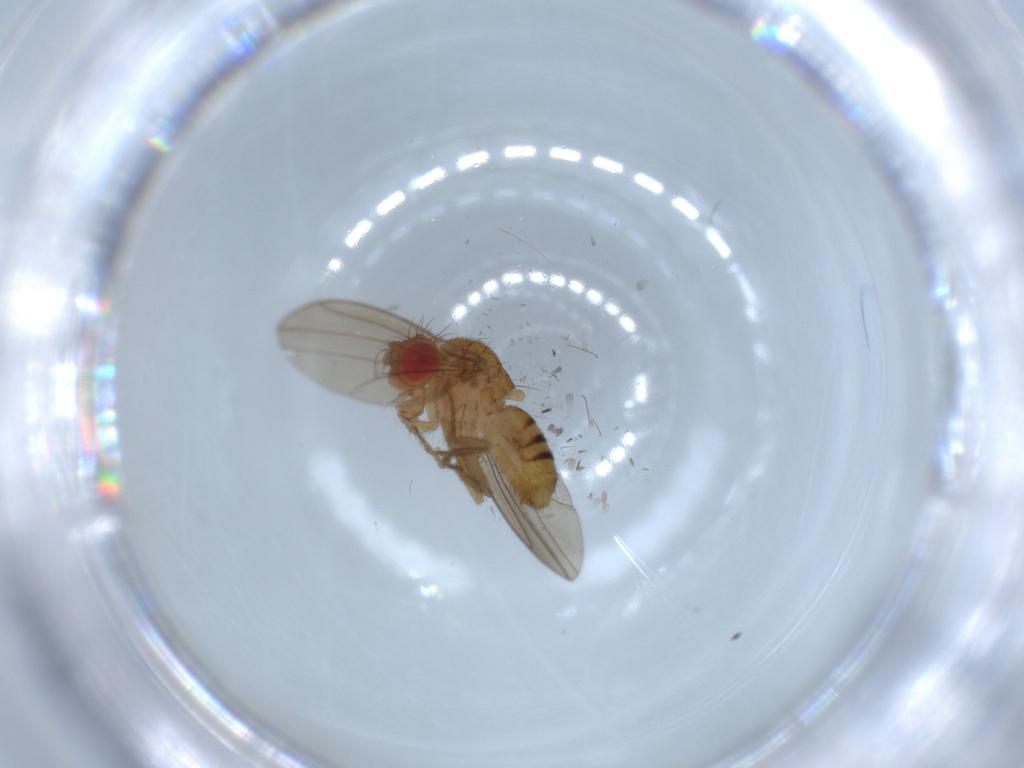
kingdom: Animalia
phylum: Arthropoda
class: Insecta
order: Diptera
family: Drosophilidae
